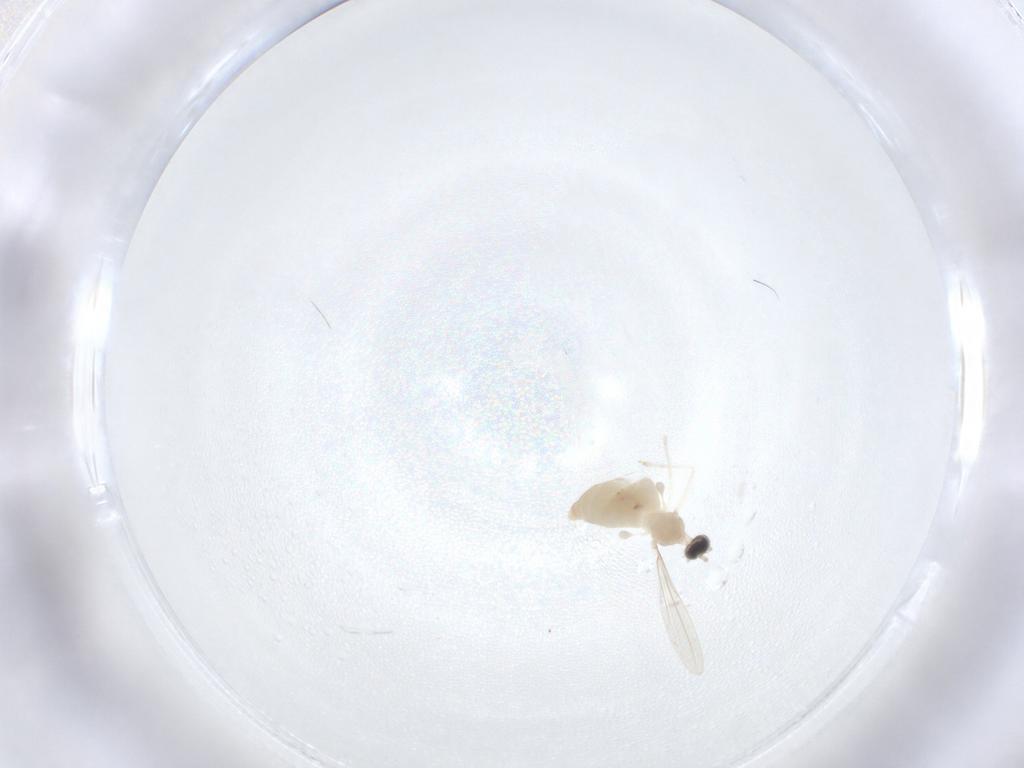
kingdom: Animalia
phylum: Arthropoda
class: Insecta
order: Diptera
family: Cecidomyiidae
